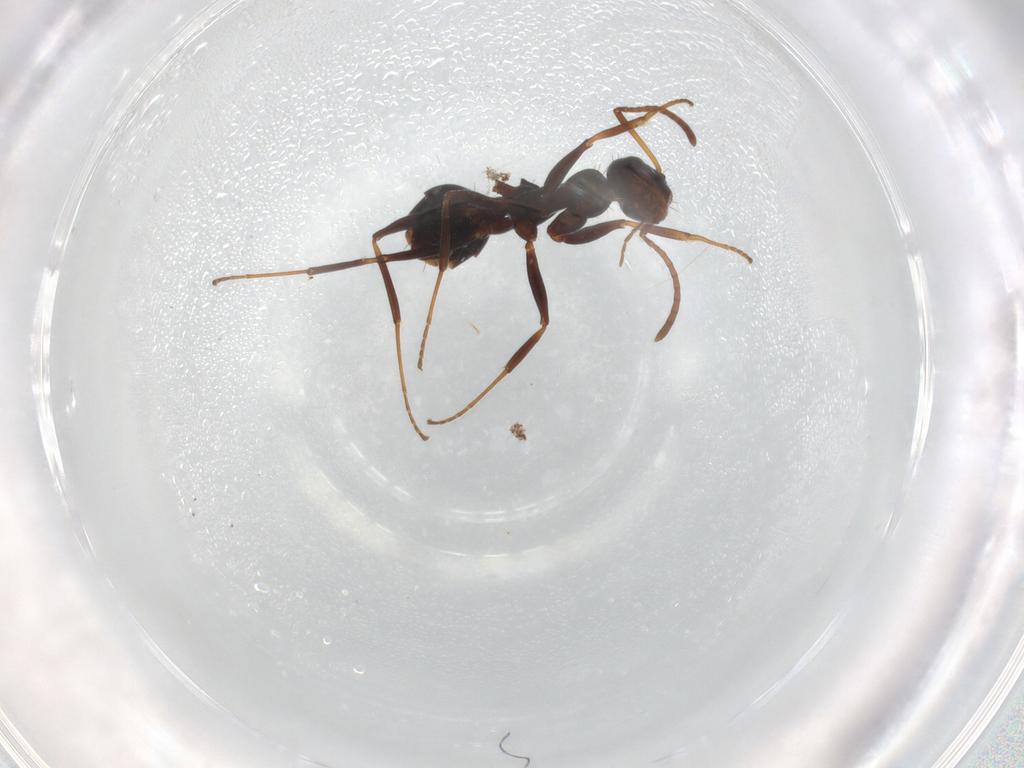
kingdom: Animalia
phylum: Arthropoda
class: Insecta
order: Hymenoptera
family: Formicidae
